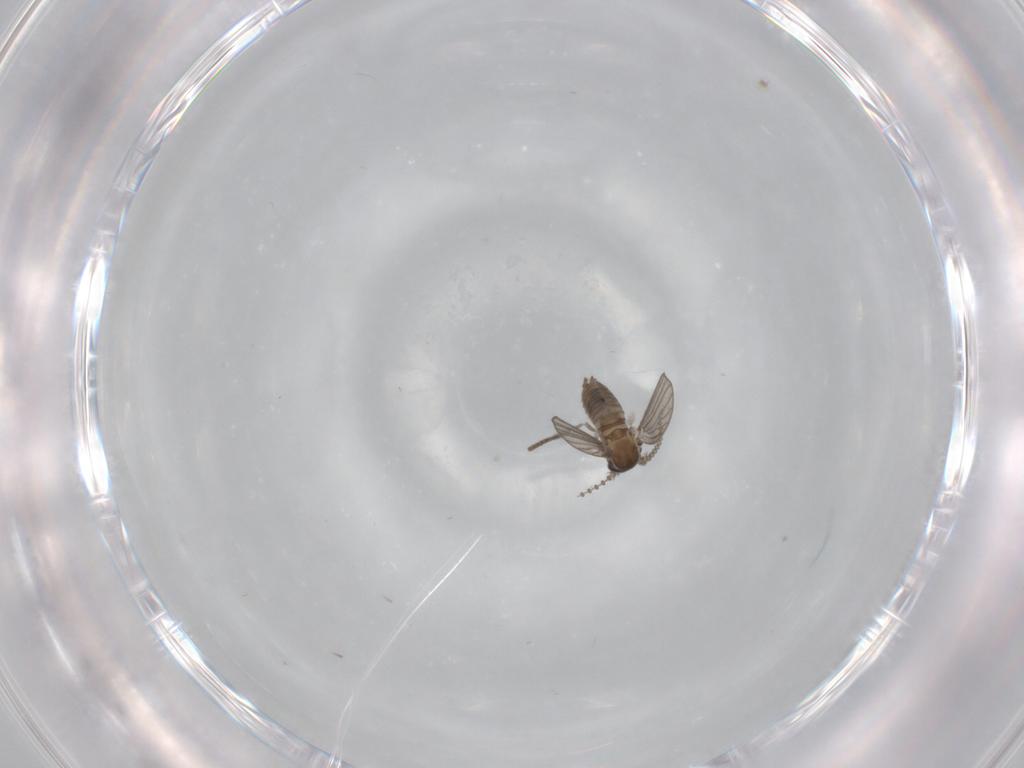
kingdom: Animalia
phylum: Arthropoda
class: Insecta
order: Diptera
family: Psychodidae
